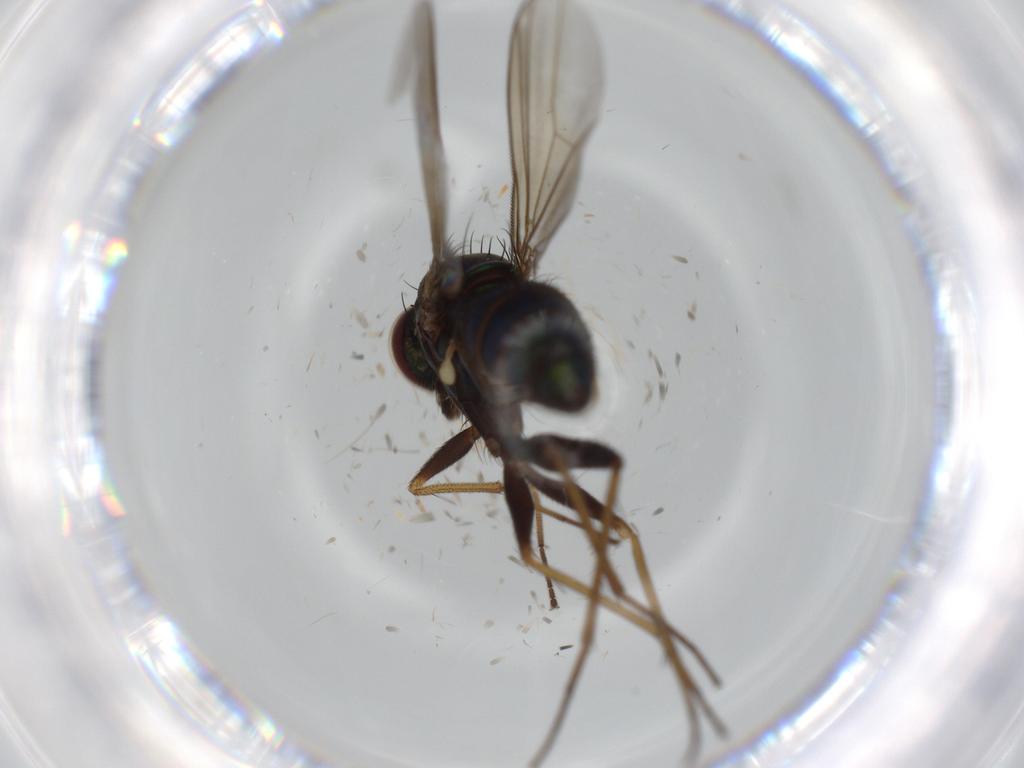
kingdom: Animalia
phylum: Arthropoda
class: Insecta
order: Diptera
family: Dolichopodidae
